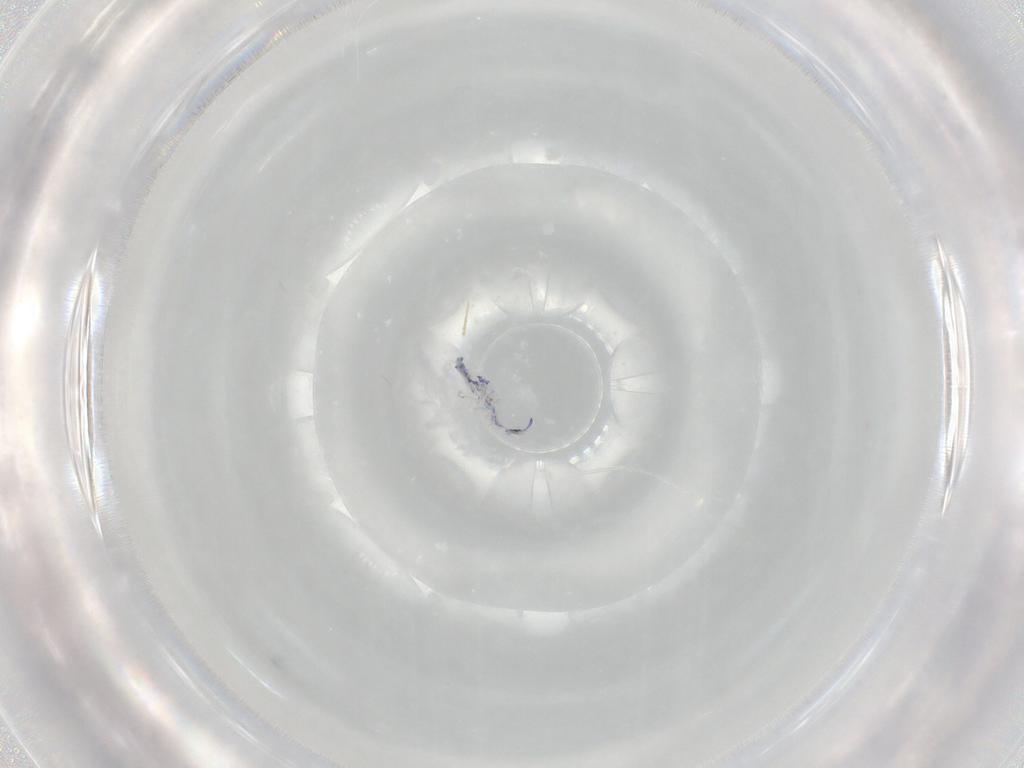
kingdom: Animalia
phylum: Arthropoda
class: Collembola
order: Entomobryomorpha
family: Entomobryidae
